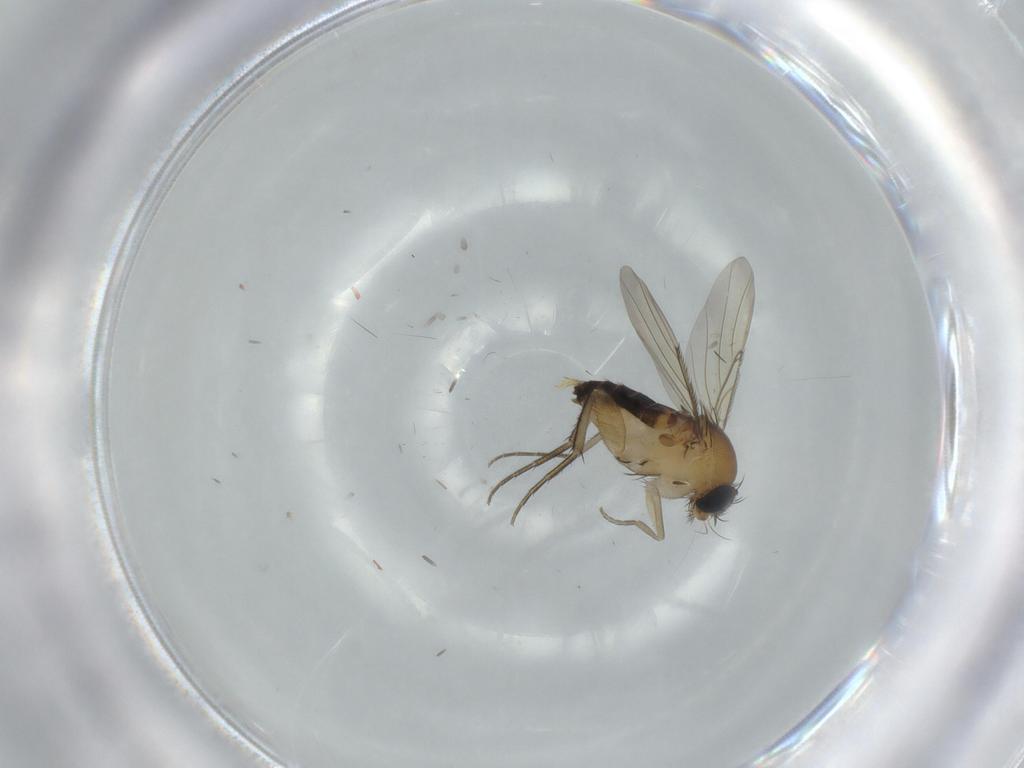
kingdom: Animalia
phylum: Arthropoda
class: Insecta
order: Diptera
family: Phoridae
